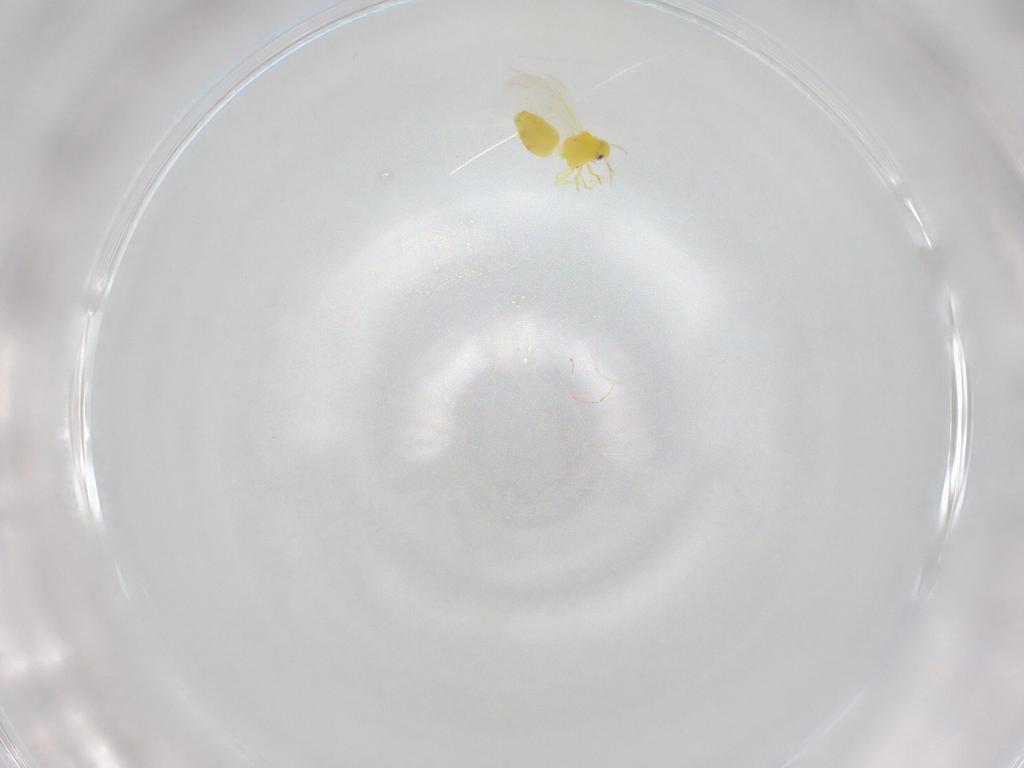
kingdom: Animalia
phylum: Arthropoda
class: Insecta
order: Hemiptera
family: Aleyrodidae
